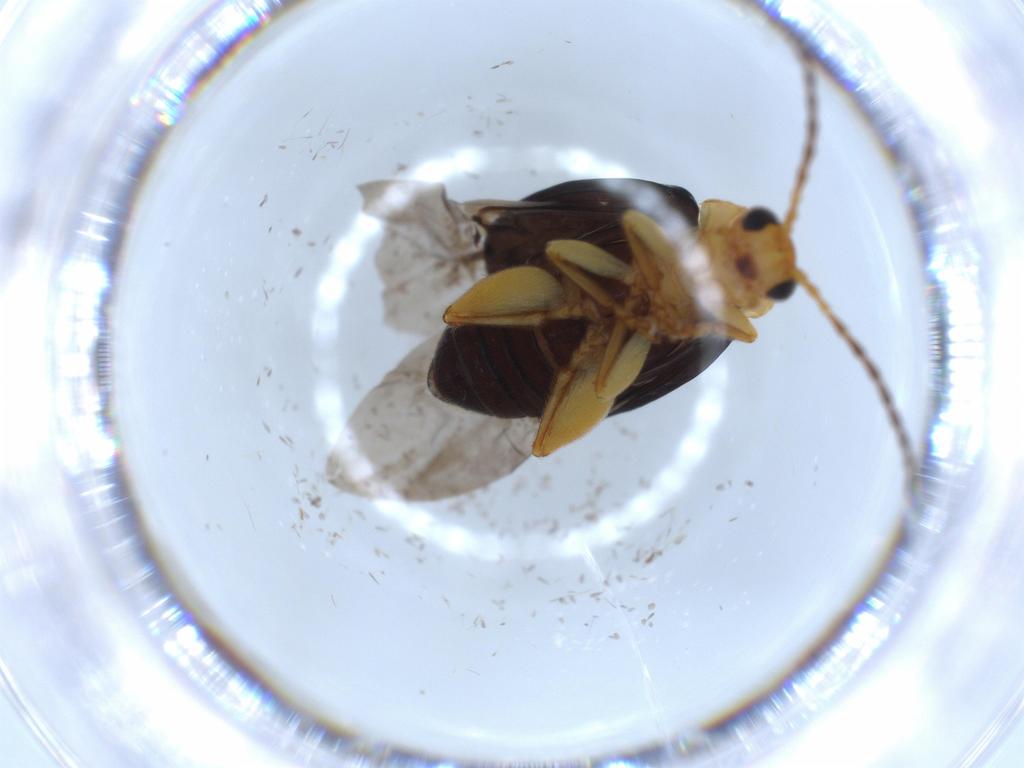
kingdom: Animalia
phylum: Arthropoda
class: Insecta
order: Coleoptera
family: Chrysomelidae
